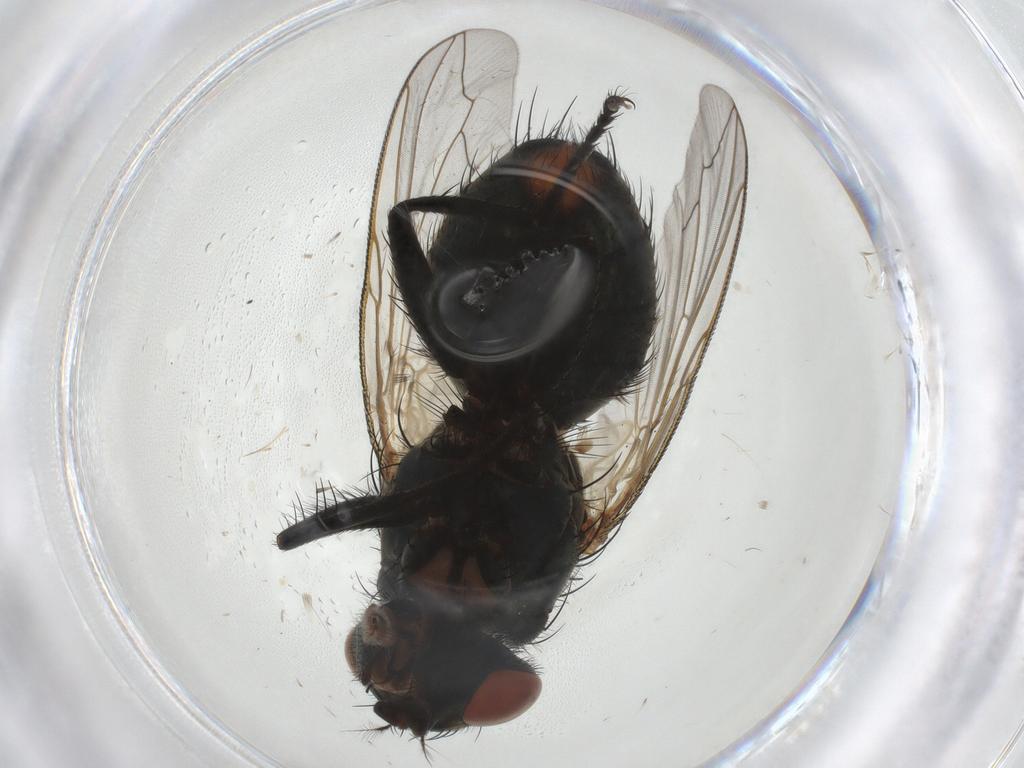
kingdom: Animalia
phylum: Arthropoda
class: Insecta
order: Diptera
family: Sarcophagidae
